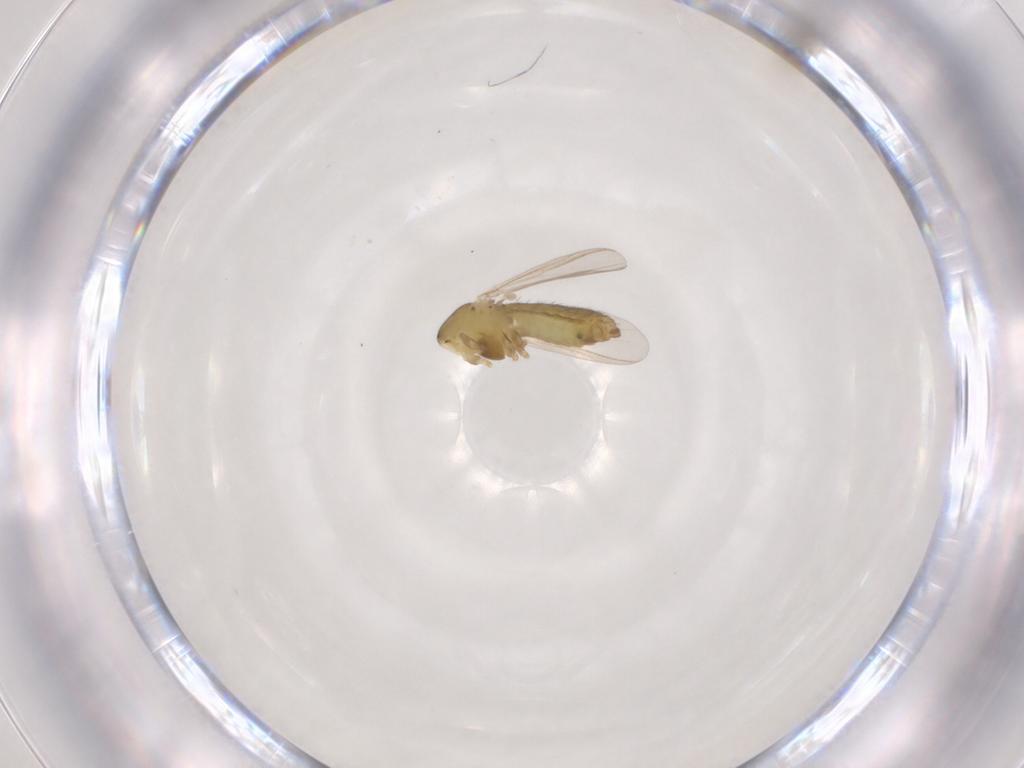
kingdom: Animalia
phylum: Arthropoda
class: Insecta
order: Diptera
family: Chironomidae
